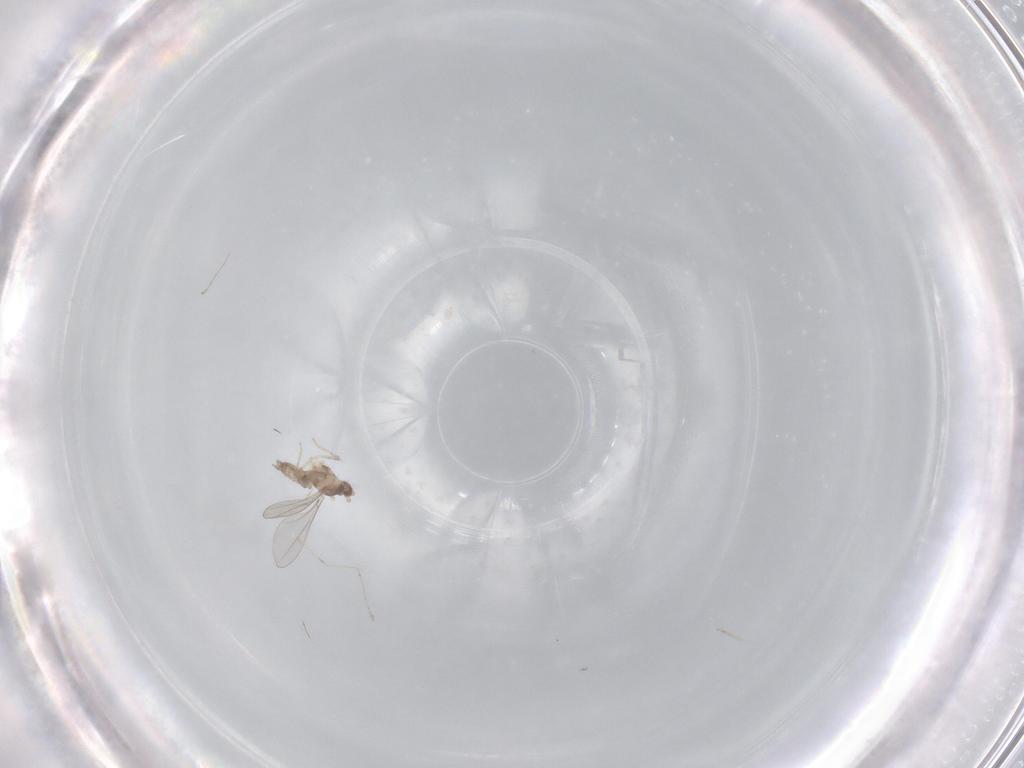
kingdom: Animalia
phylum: Arthropoda
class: Insecta
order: Diptera
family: Cecidomyiidae
